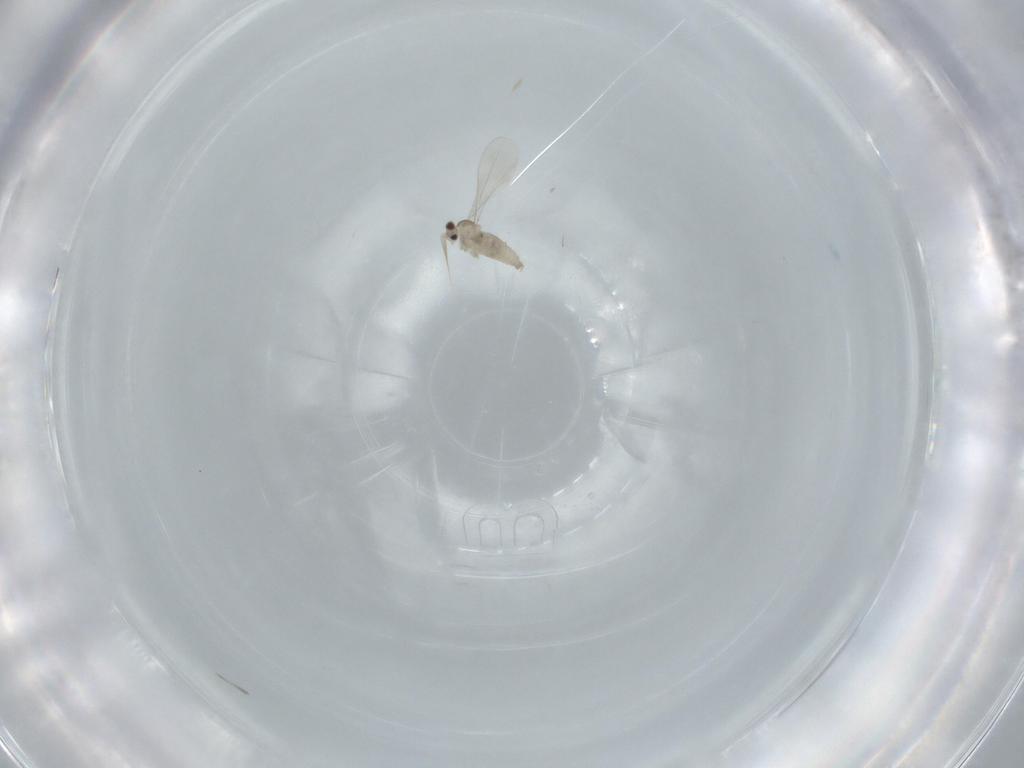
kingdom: Animalia
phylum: Arthropoda
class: Insecta
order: Diptera
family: Cecidomyiidae
